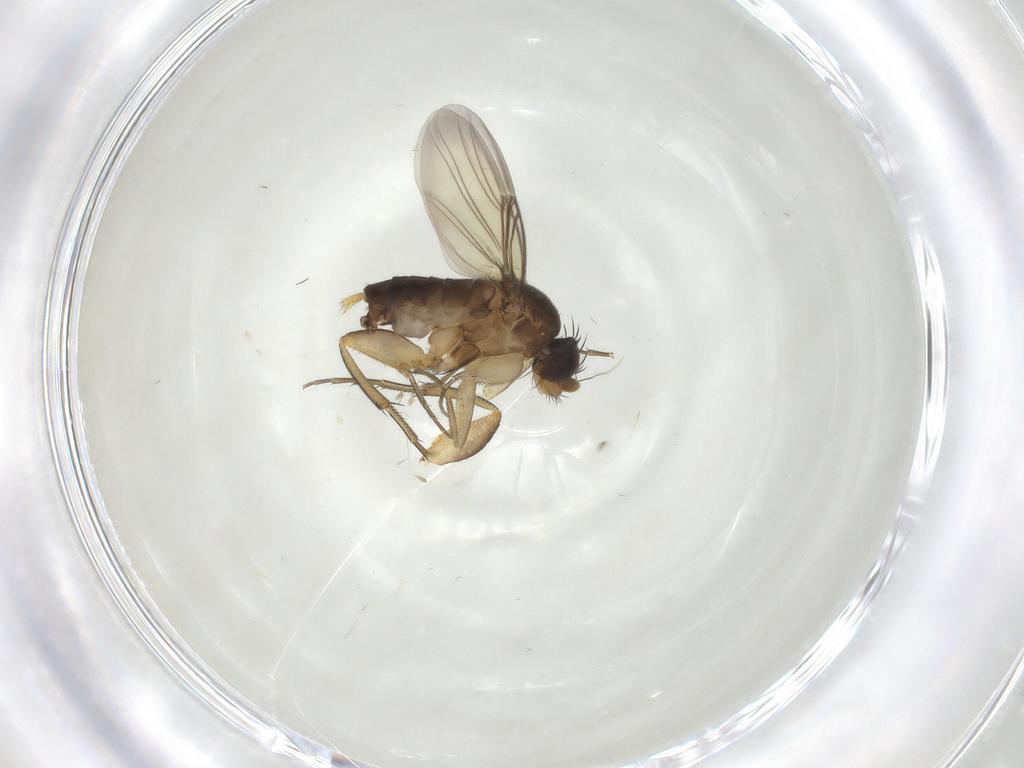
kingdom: Animalia
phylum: Arthropoda
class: Insecta
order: Diptera
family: Phoridae
